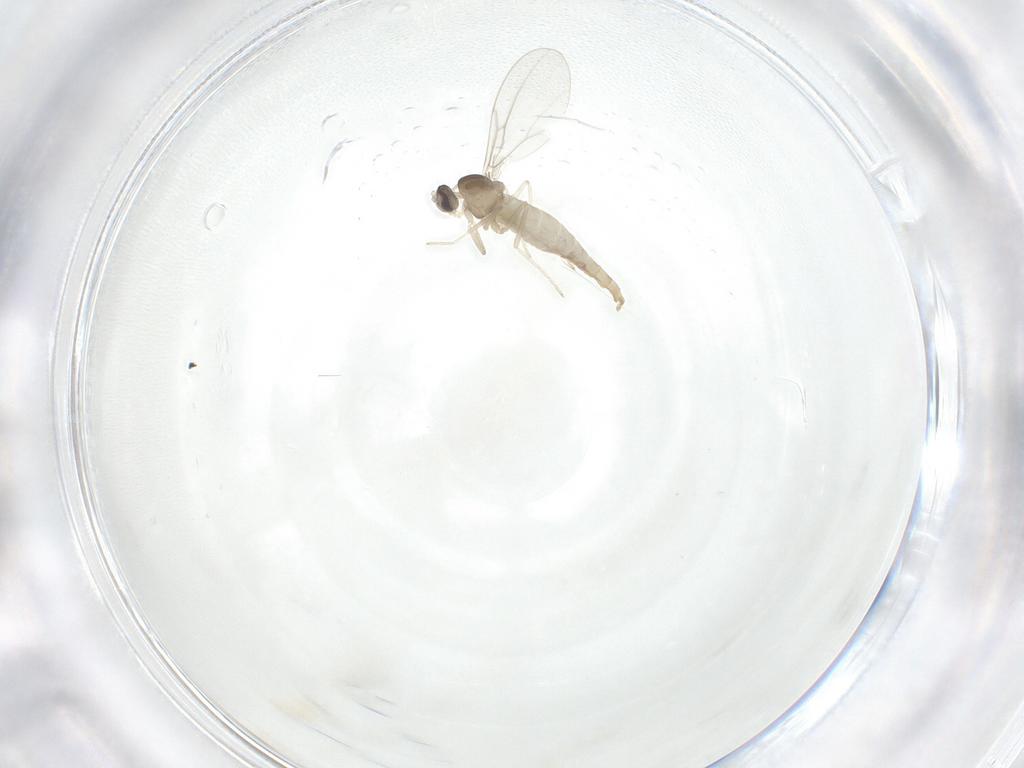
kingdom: Animalia
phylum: Arthropoda
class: Insecta
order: Diptera
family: Cecidomyiidae
